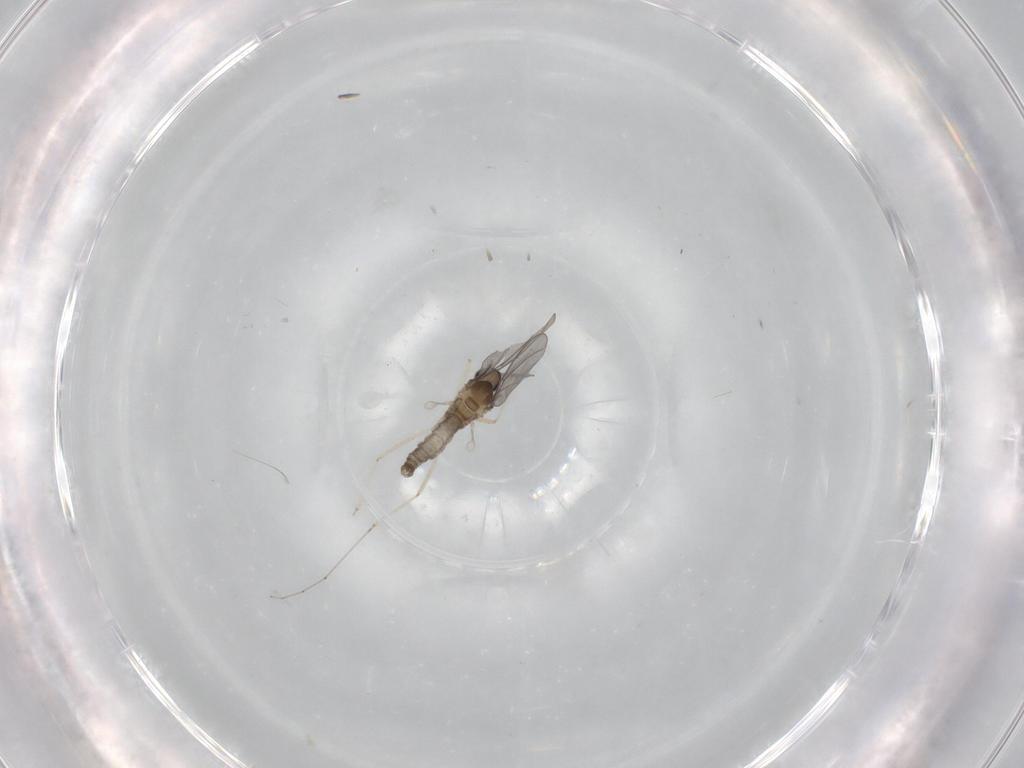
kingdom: Animalia
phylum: Arthropoda
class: Insecta
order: Diptera
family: Cecidomyiidae
